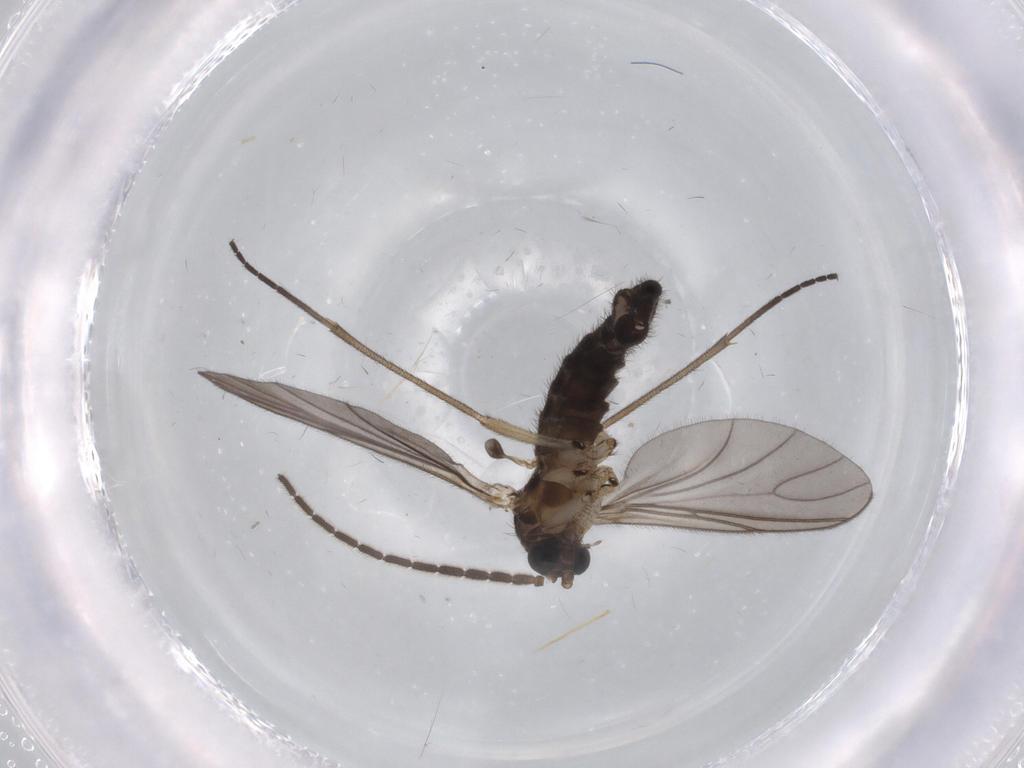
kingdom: Animalia
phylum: Arthropoda
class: Insecta
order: Diptera
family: Sciaridae
